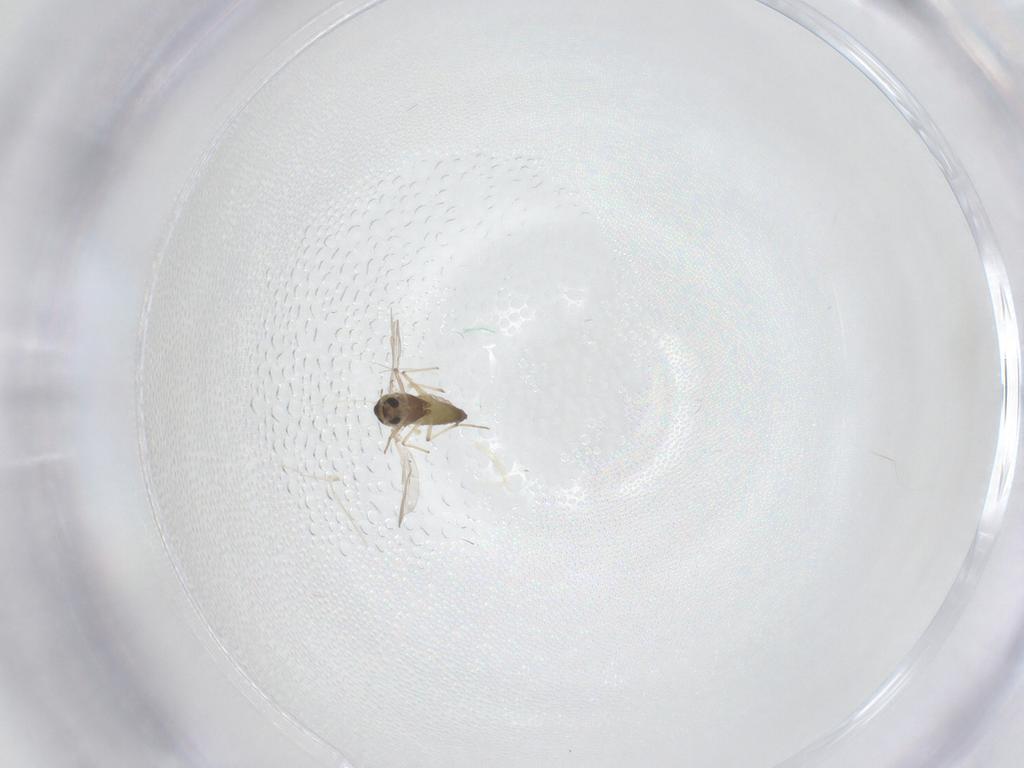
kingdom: Animalia
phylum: Arthropoda
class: Insecta
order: Diptera
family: Chironomidae
